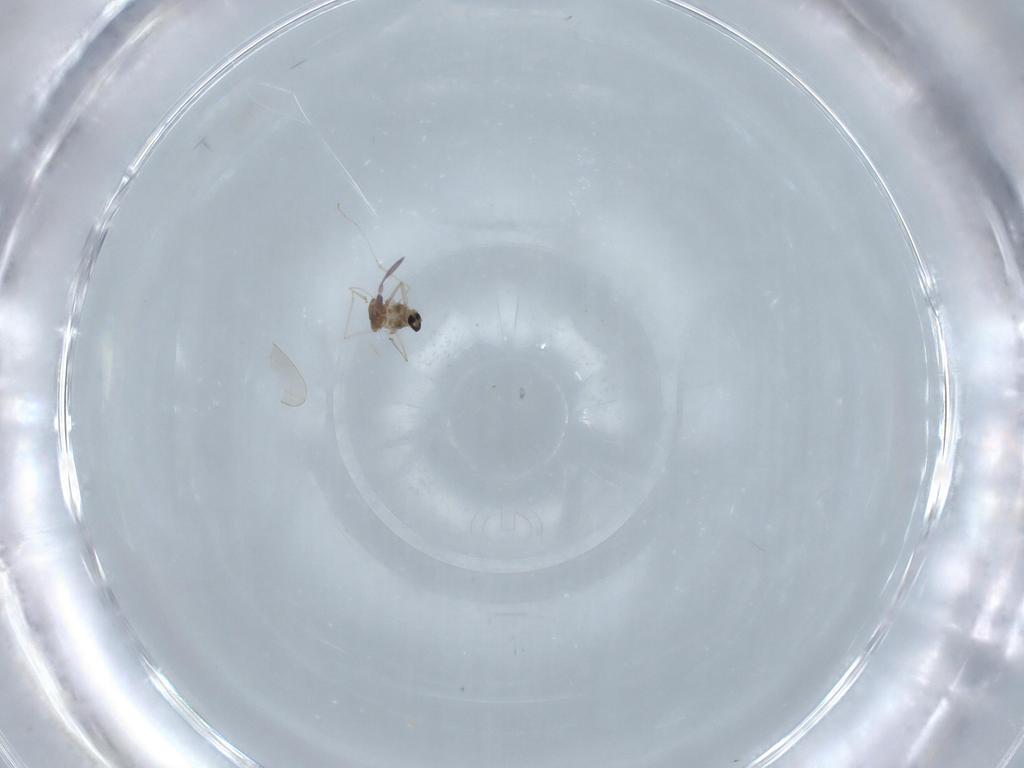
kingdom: Animalia
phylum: Arthropoda
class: Insecta
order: Diptera
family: Cecidomyiidae
